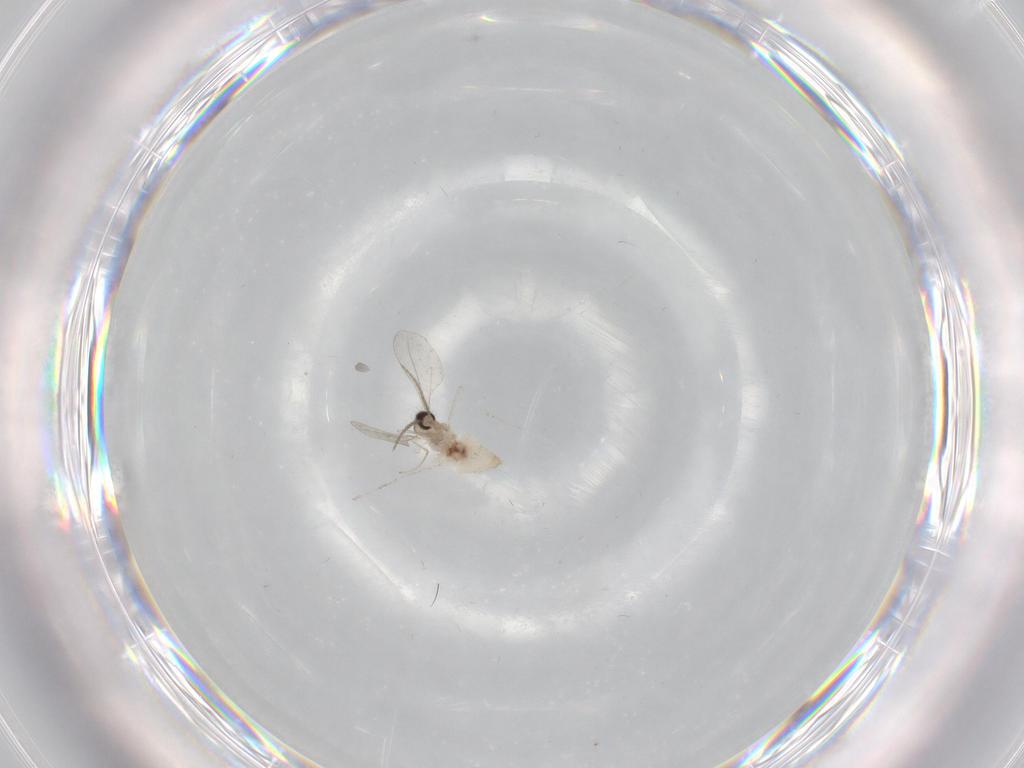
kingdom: Animalia
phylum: Arthropoda
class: Insecta
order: Diptera
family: Cecidomyiidae
